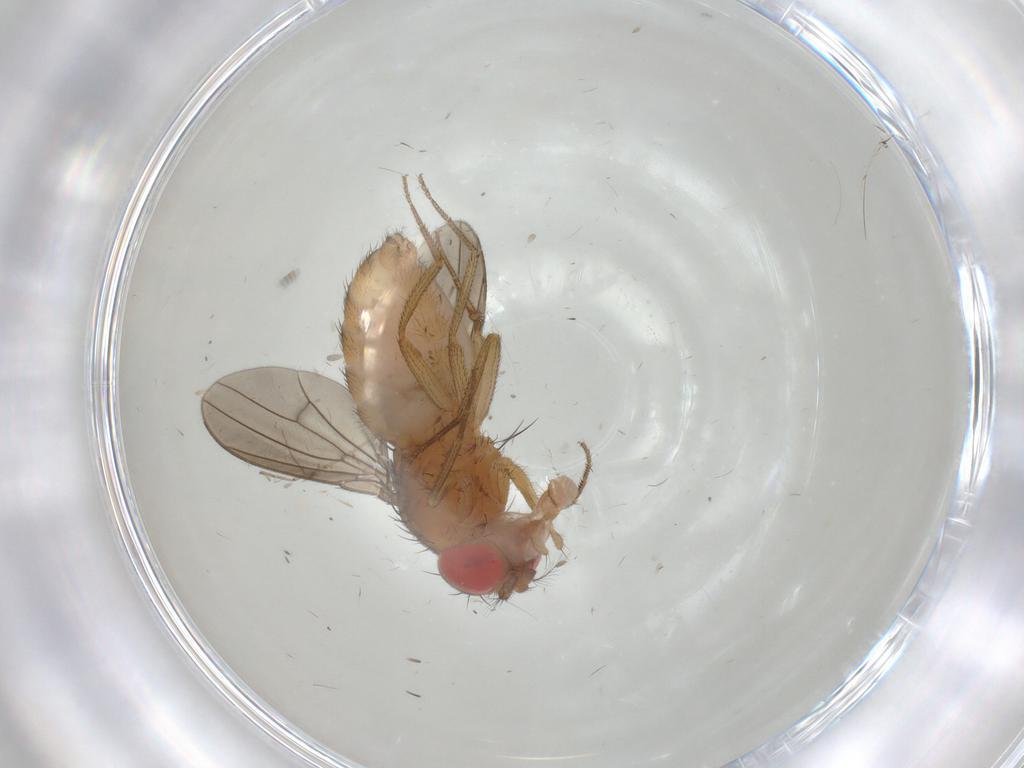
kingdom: Animalia
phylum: Arthropoda
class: Insecta
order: Diptera
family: Drosophilidae
